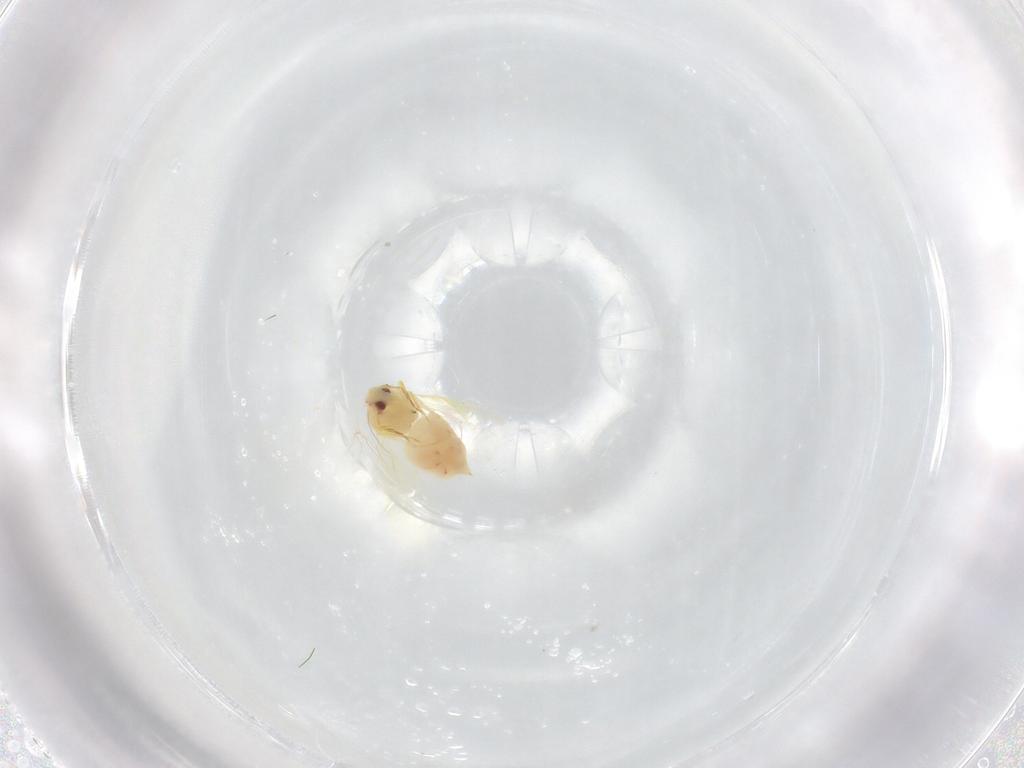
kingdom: Animalia
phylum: Arthropoda
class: Insecta
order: Hemiptera
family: Aleyrodidae
